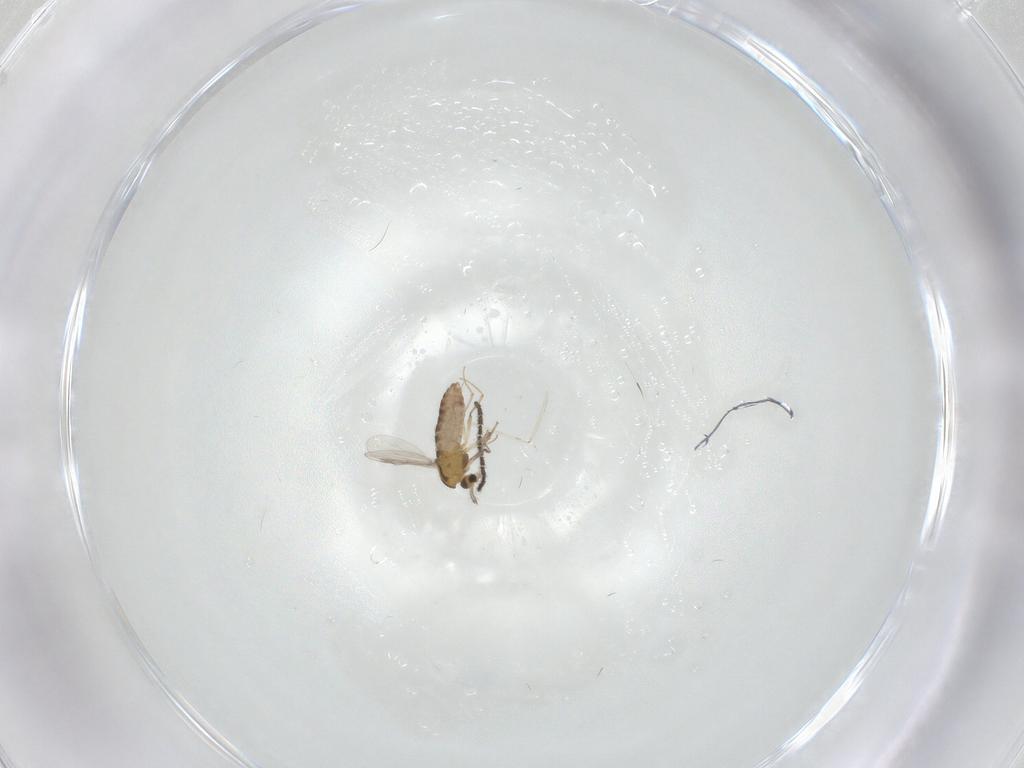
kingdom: Animalia
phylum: Arthropoda
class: Insecta
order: Diptera
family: Chironomidae
